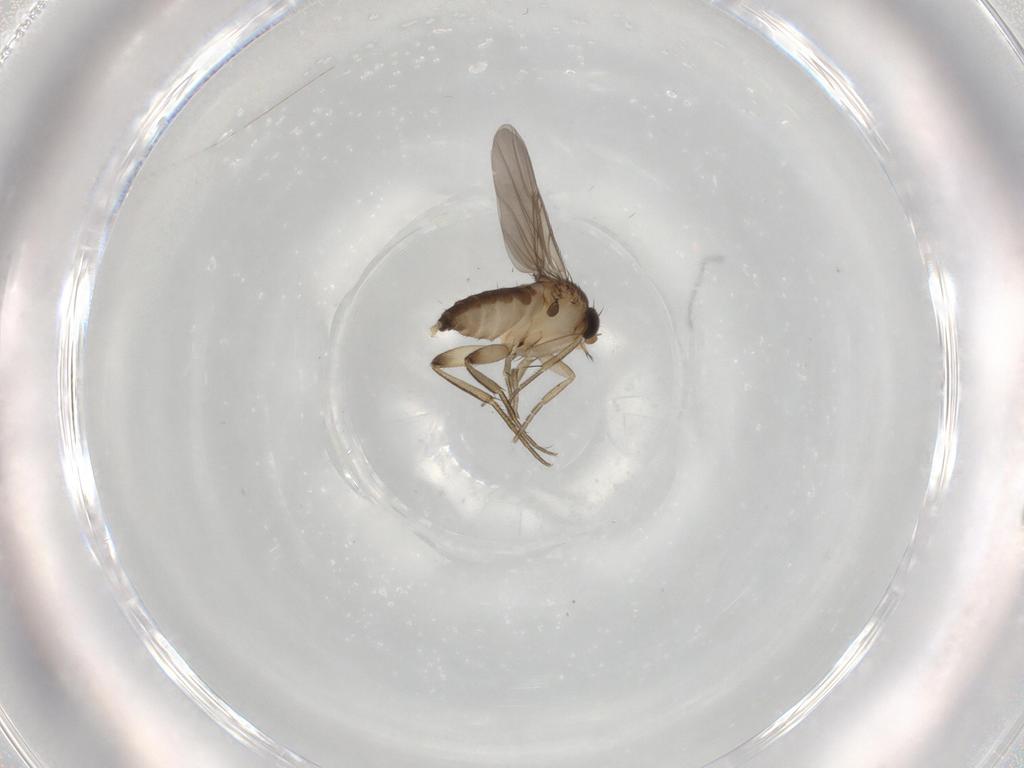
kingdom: Animalia
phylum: Arthropoda
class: Insecta
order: Diptera
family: Phoridae
